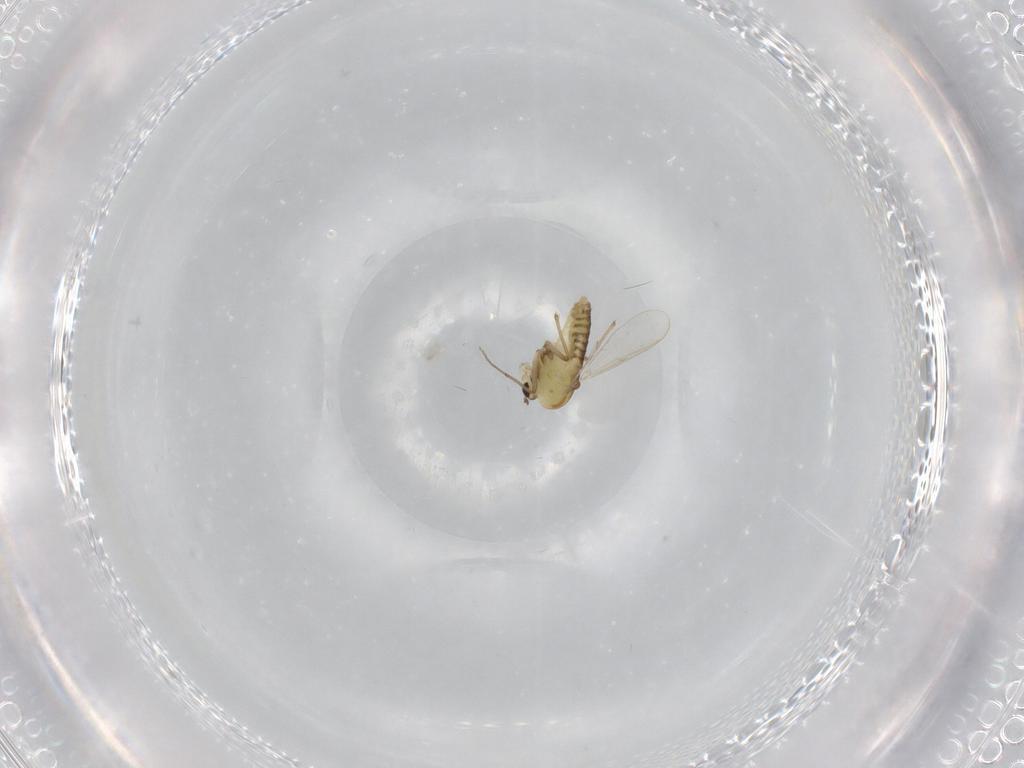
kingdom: Animalia
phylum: Arthropoda
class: Insecta
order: Diptera
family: Chironomidae
